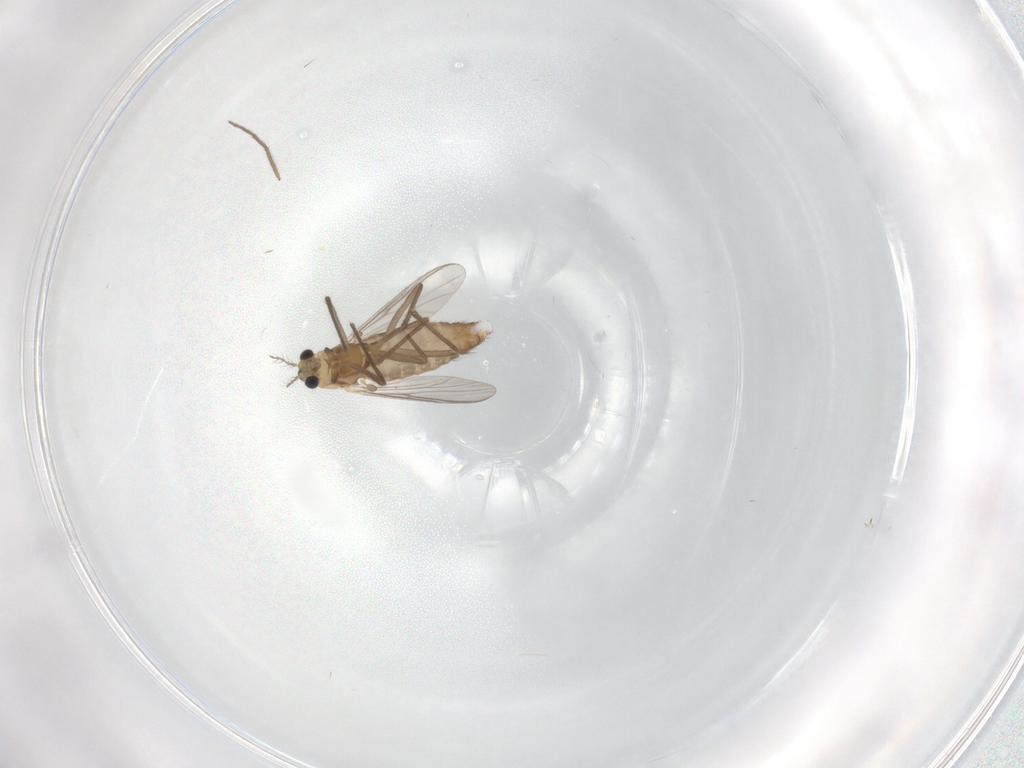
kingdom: Animalia
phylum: Arthropoda
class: Insecta
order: Diptera
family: Chironomidae
